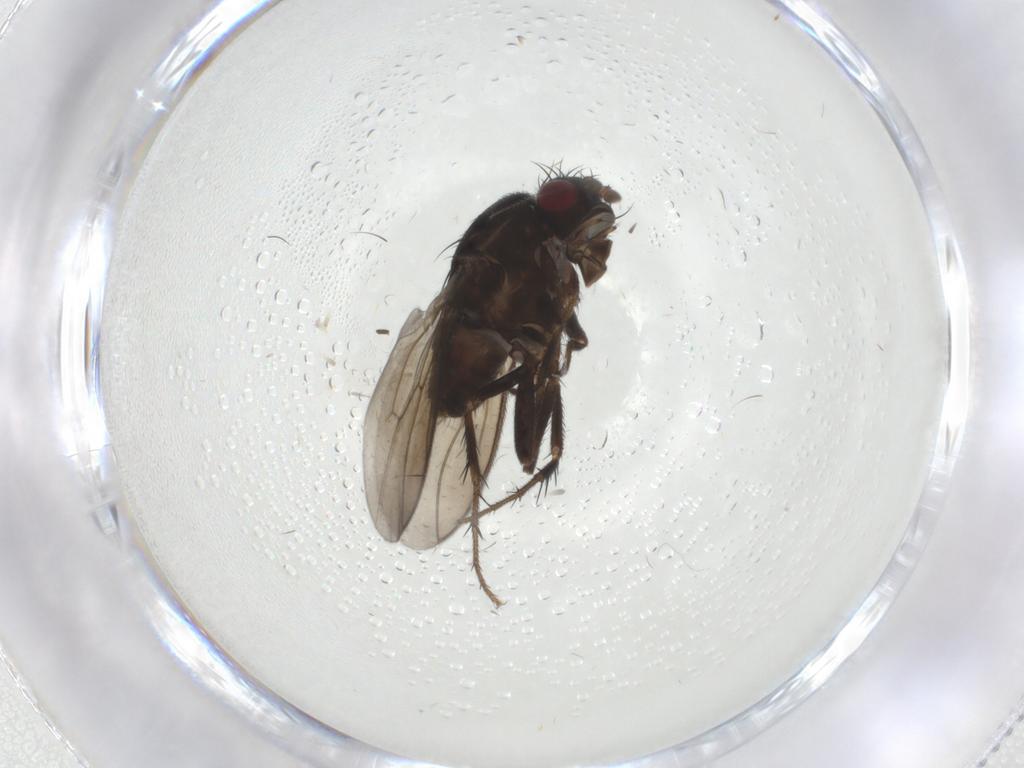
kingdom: Animalia
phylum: Arthropoda
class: Insecta
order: Diptera
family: Sphaeroceridae
